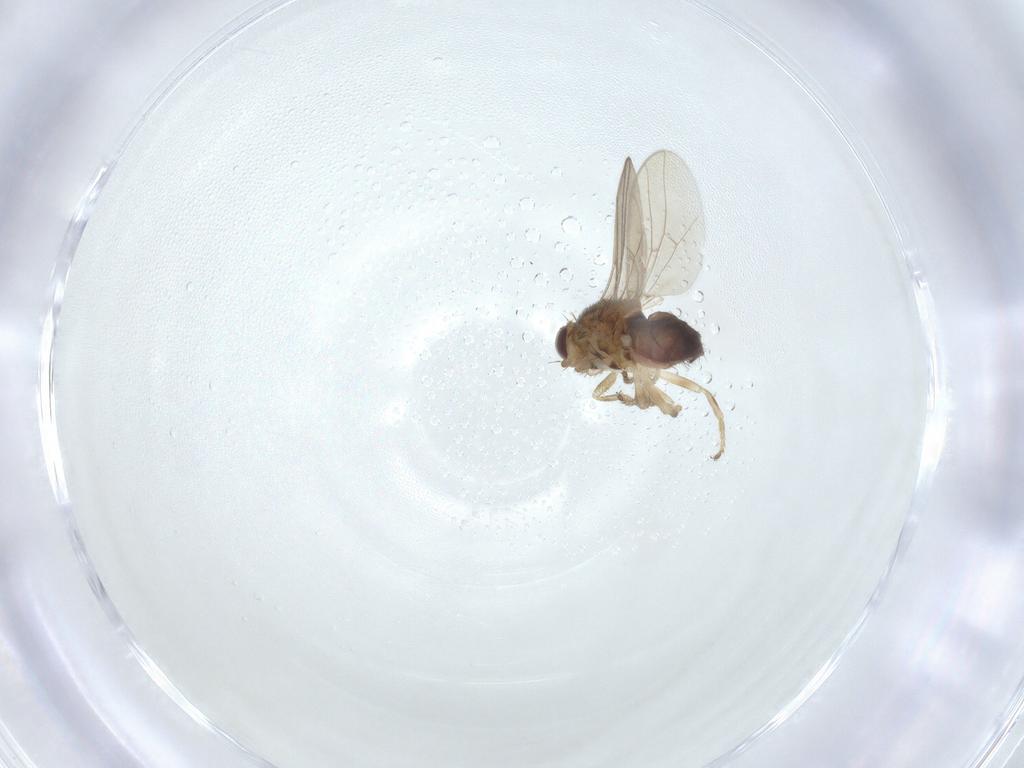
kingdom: Animalia
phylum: Arthropoda
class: Insecta
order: Diptera
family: Chloropidae
